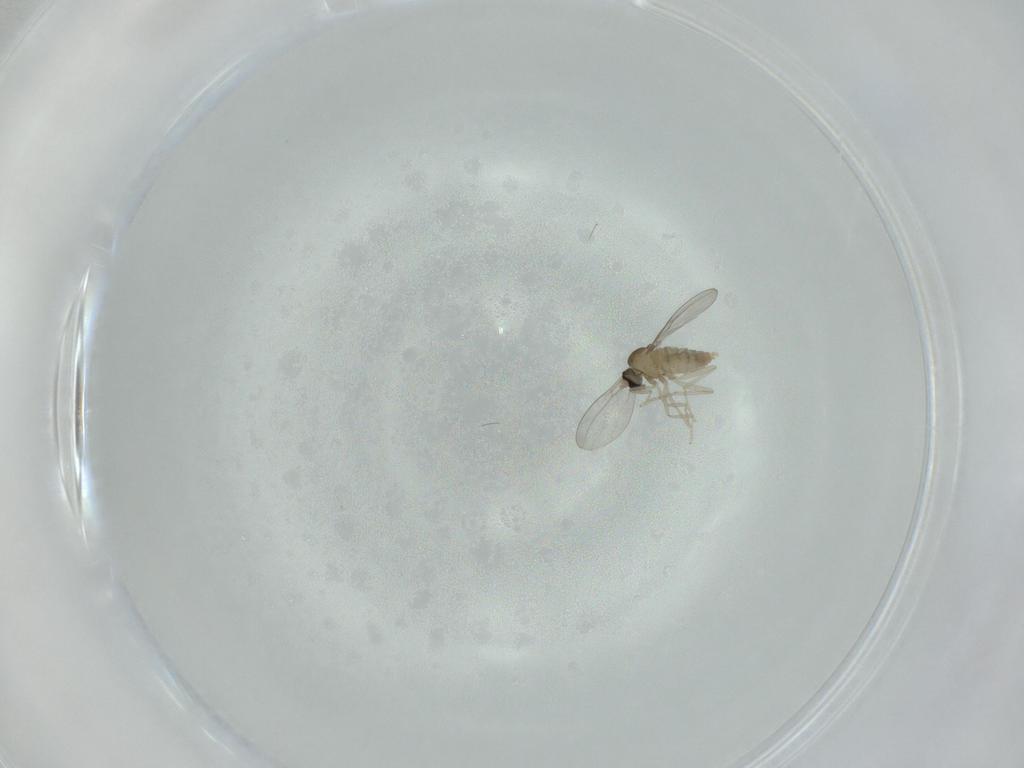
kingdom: Animalia
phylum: Arthropoda
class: Insecta
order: Diptera
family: Cecidomyiidae
